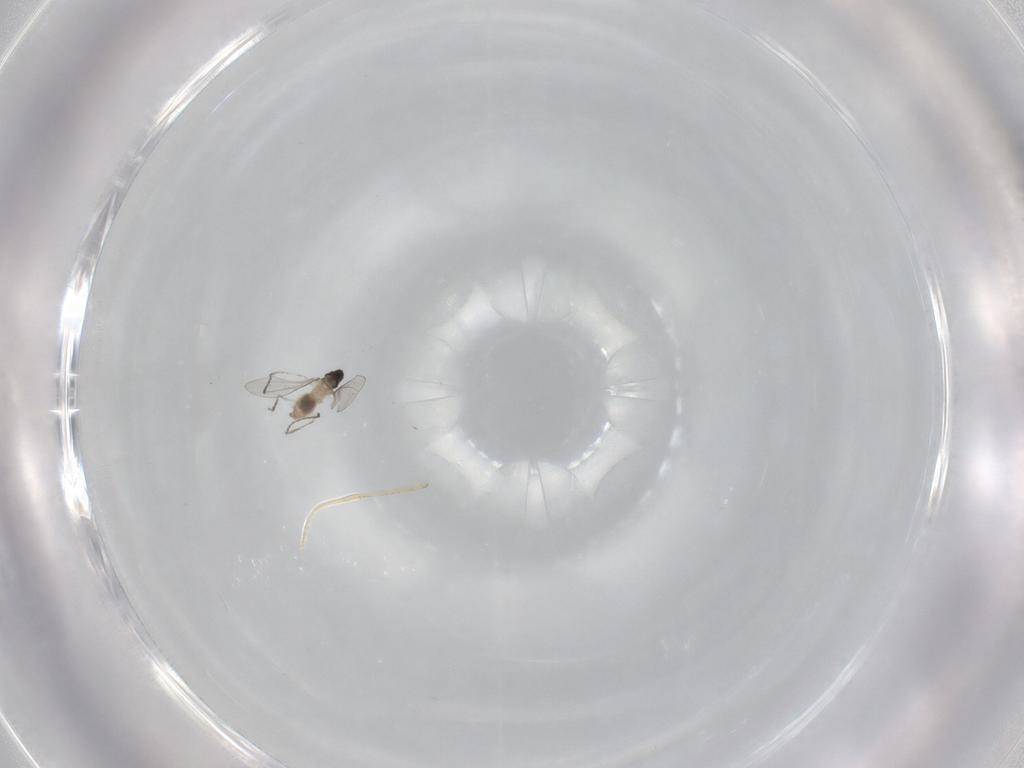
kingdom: Animalia
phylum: Arthropoda
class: Insecta
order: Diptera
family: Cecidomyiidae
